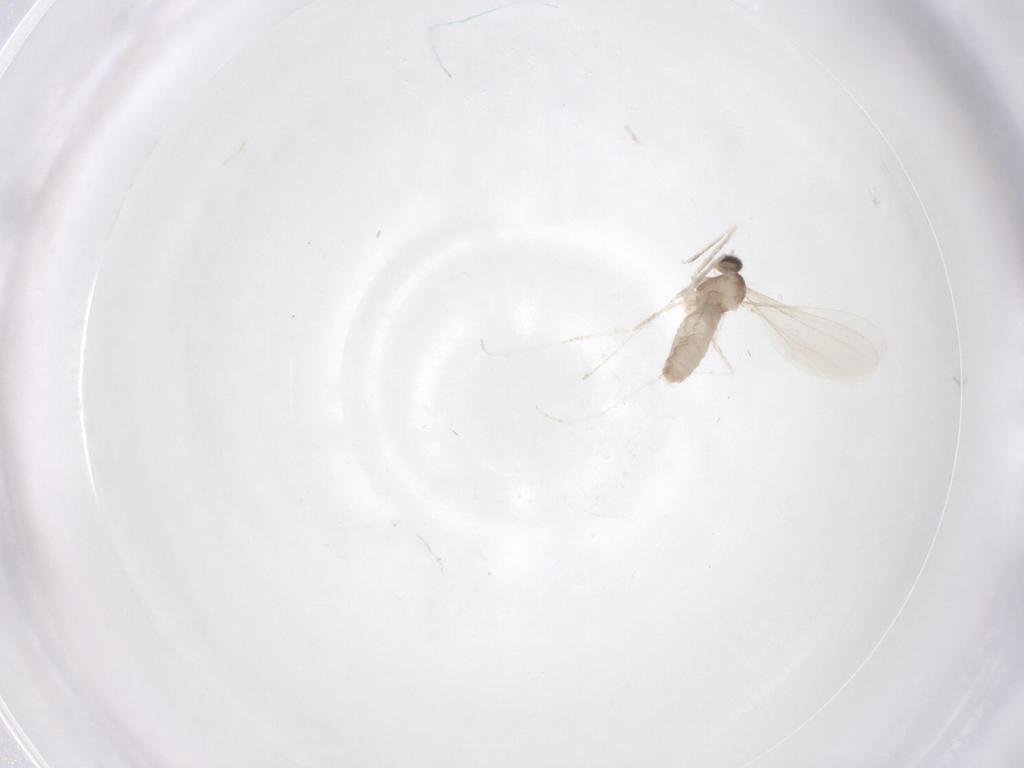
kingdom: Animalia
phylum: Arthropoda
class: Insecta
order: Diptera
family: Cecidomyiidae
